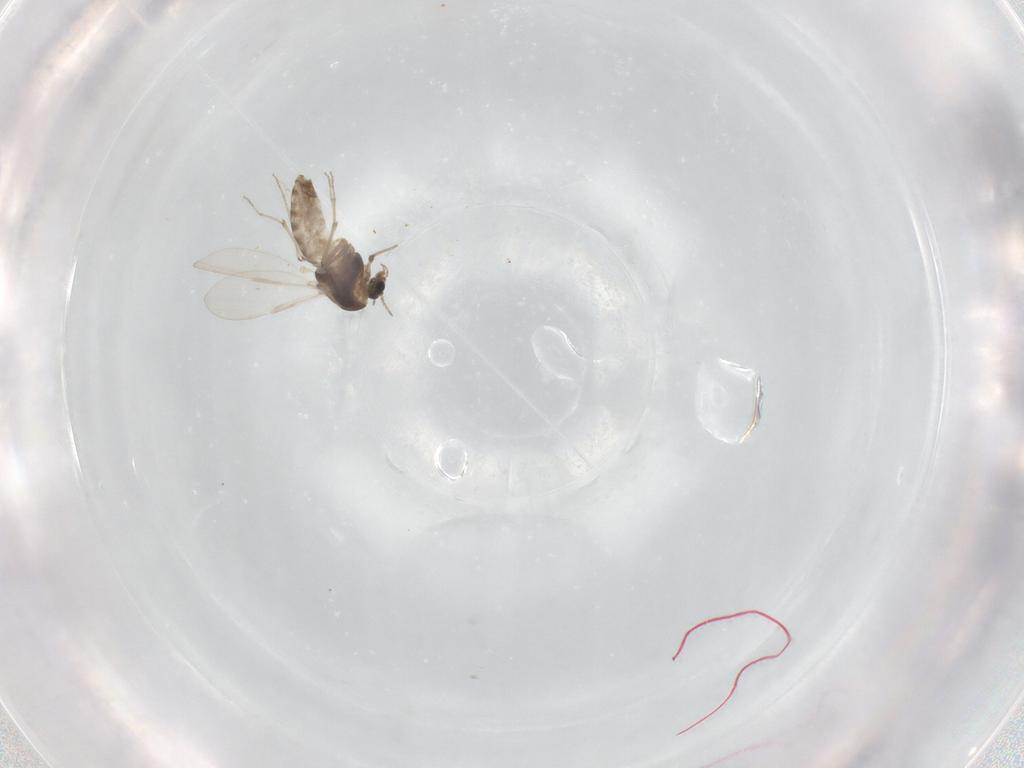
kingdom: Animalia
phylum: Arthropoda
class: Insecta
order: Diptera
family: Chironomidae
